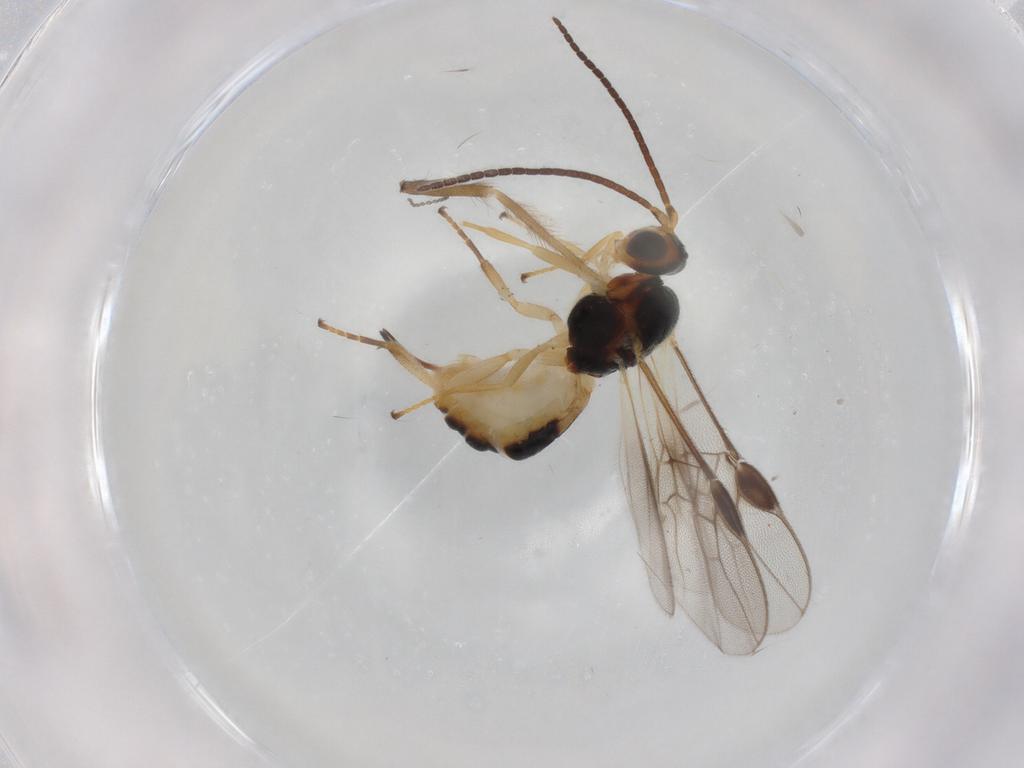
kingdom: Animalia
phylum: Arthropoda
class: Insecta
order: Hymenoptera
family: Braconidae
